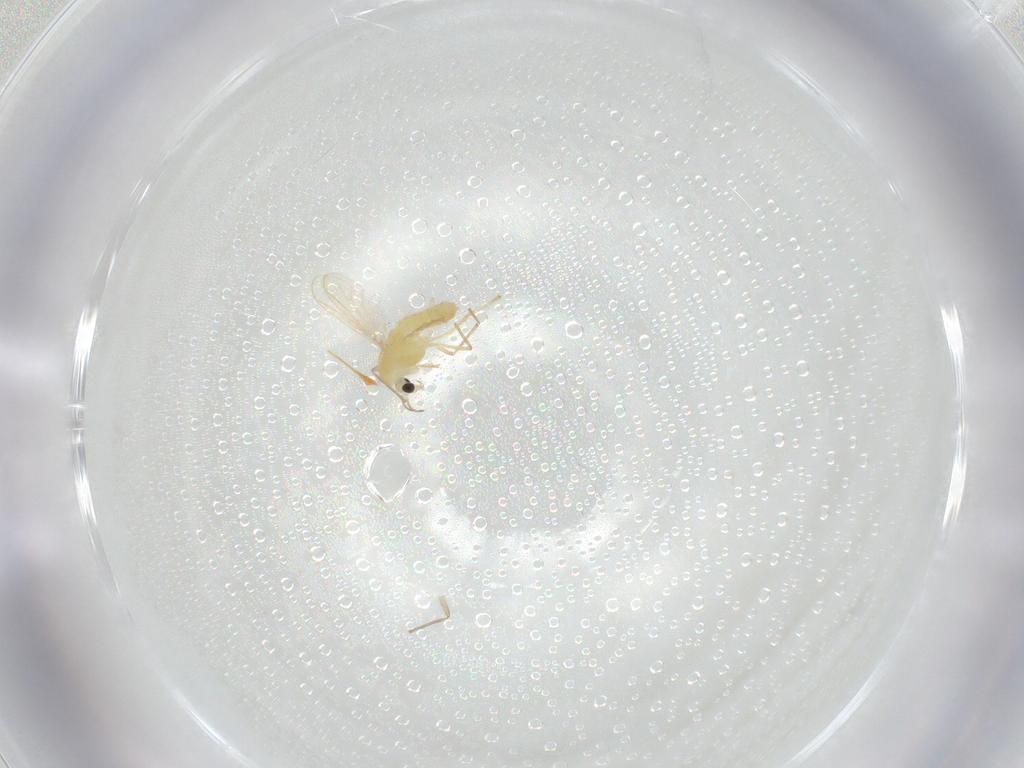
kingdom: Animalia
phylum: Arthropoda
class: Insecta
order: Diptera
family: Chironomidae
